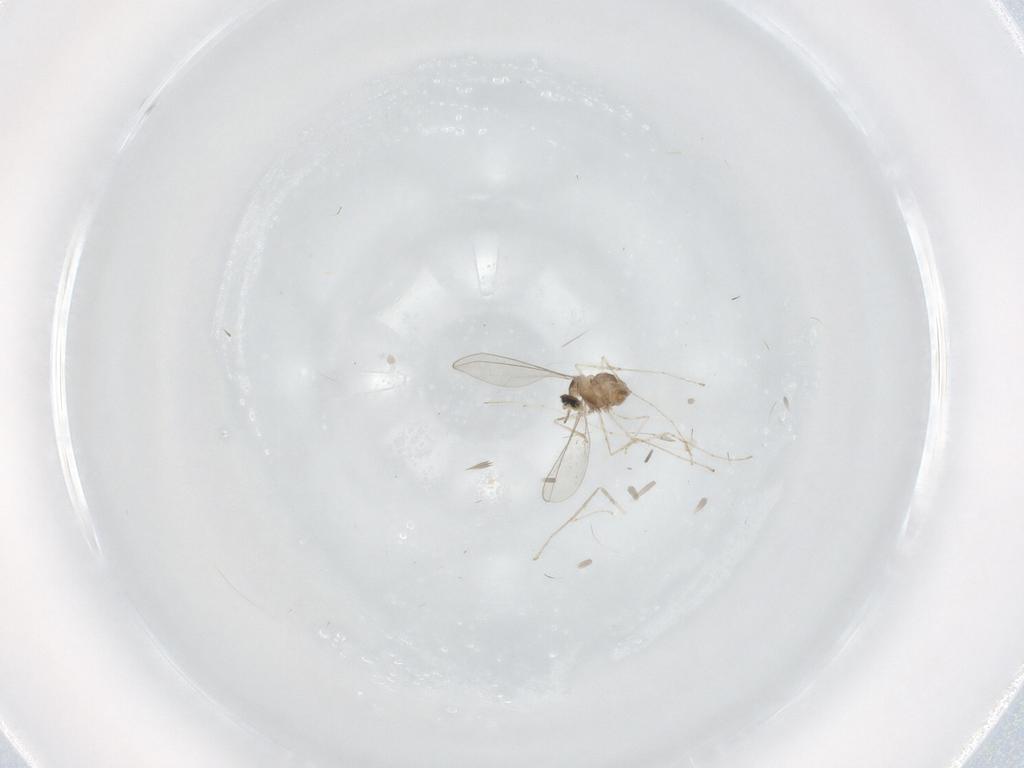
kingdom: Animalia
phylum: Arthropoda
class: Insecta
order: Diptera
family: Cecidomyiidae
